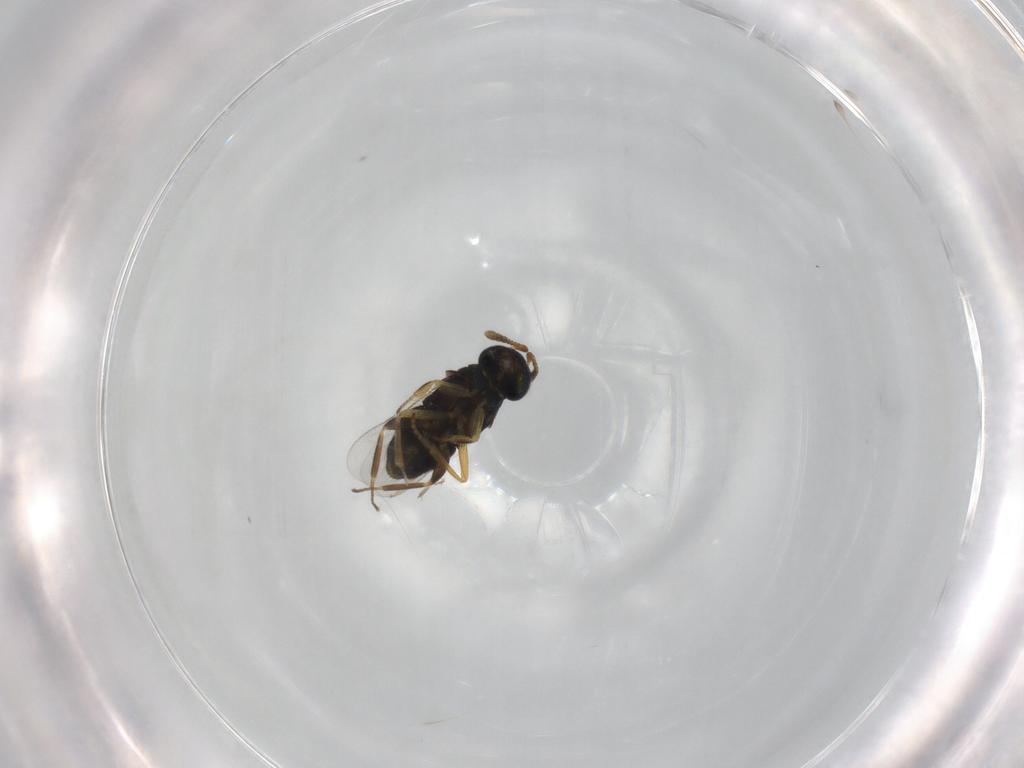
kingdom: Animalia
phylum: Arthropoda
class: Insecta
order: Hymenoptera
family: Encyrtidae
